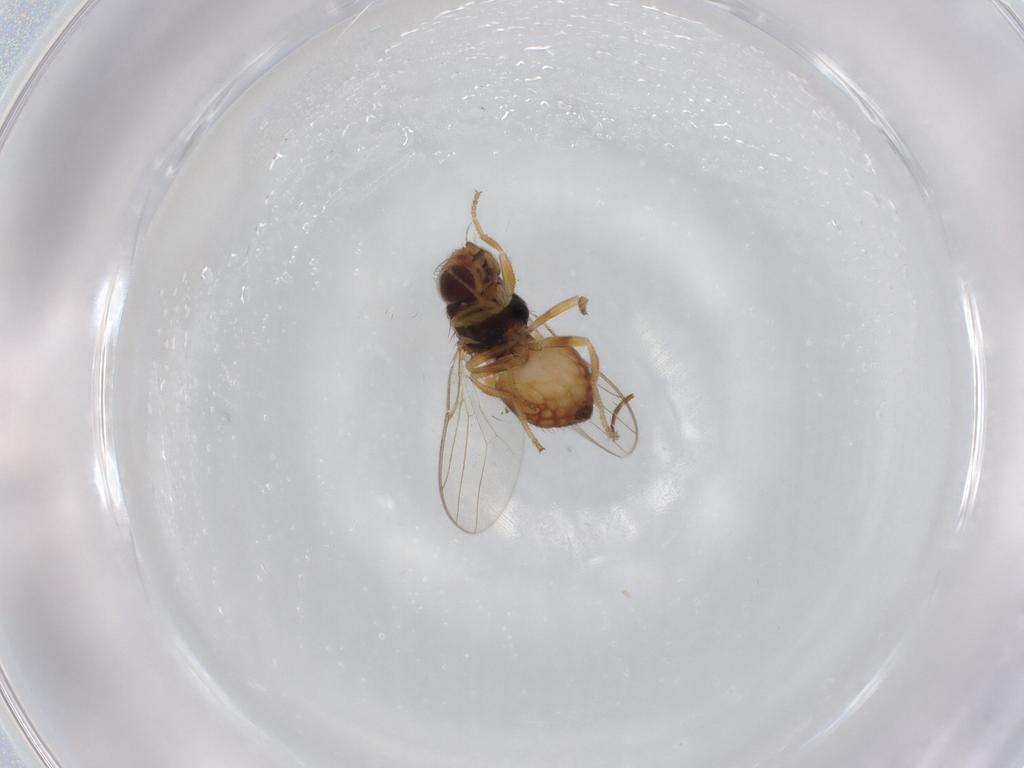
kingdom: Animalia
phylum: Arthropoda
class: Insecta
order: Diptera
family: Chloropidae
